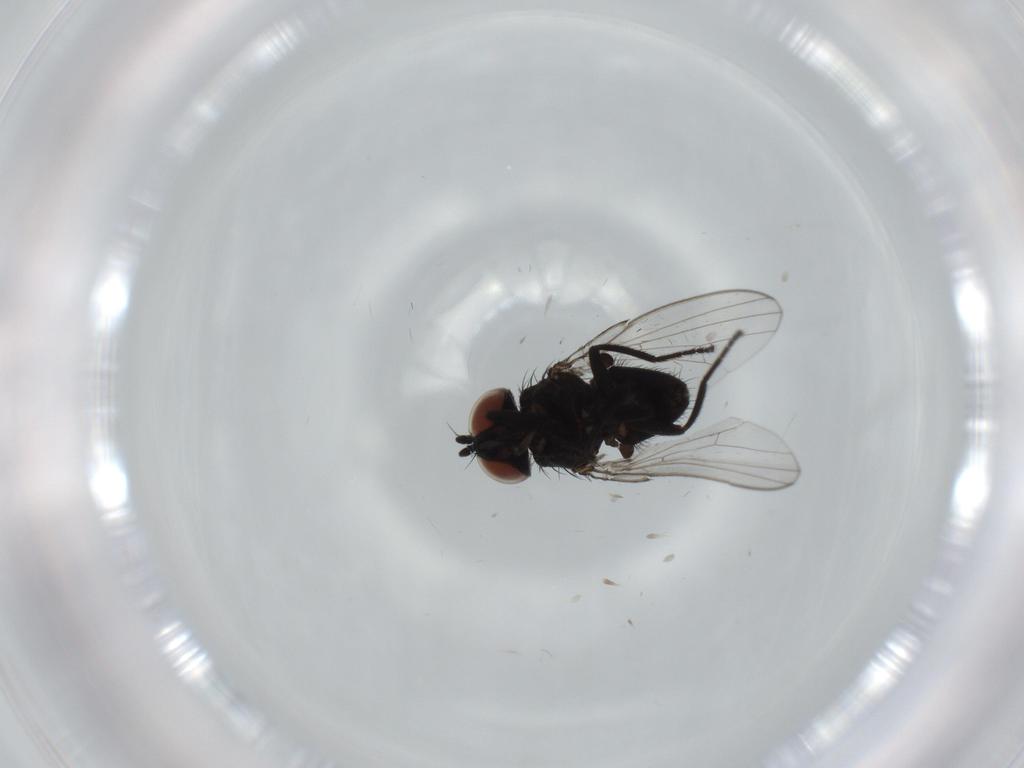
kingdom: Animalia
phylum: Arthropoda
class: Insecta
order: Diptera
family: Milichiidae
